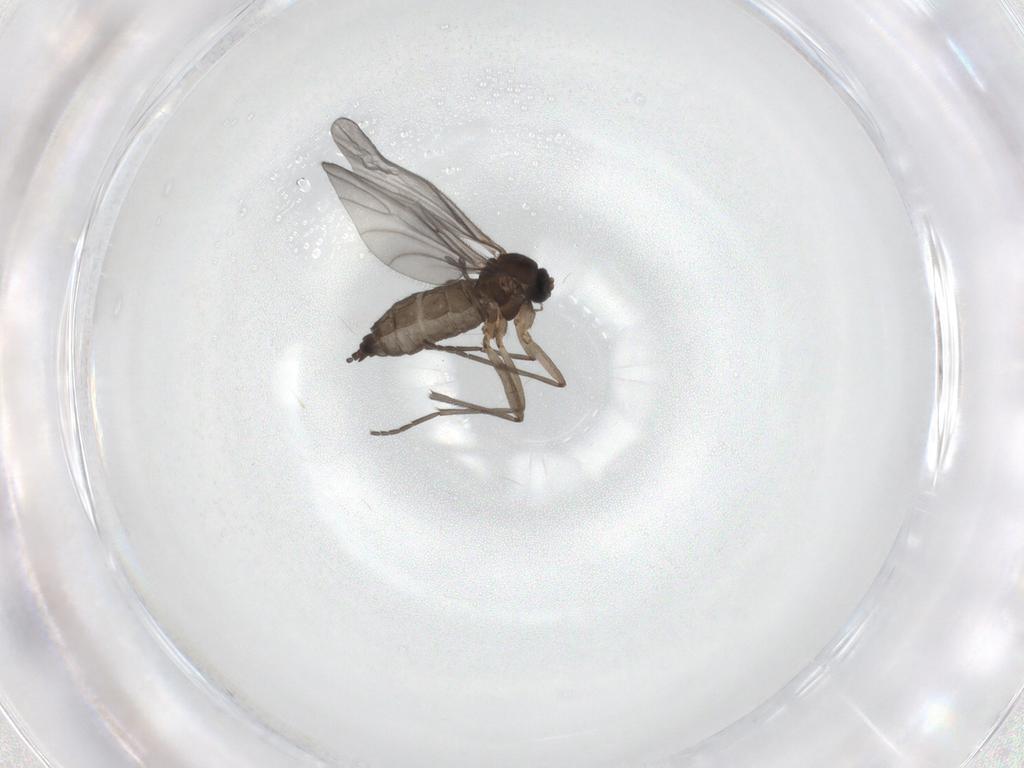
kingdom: Animalia
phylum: Arthropoda
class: Insecta
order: Diptera
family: Sciaridae
